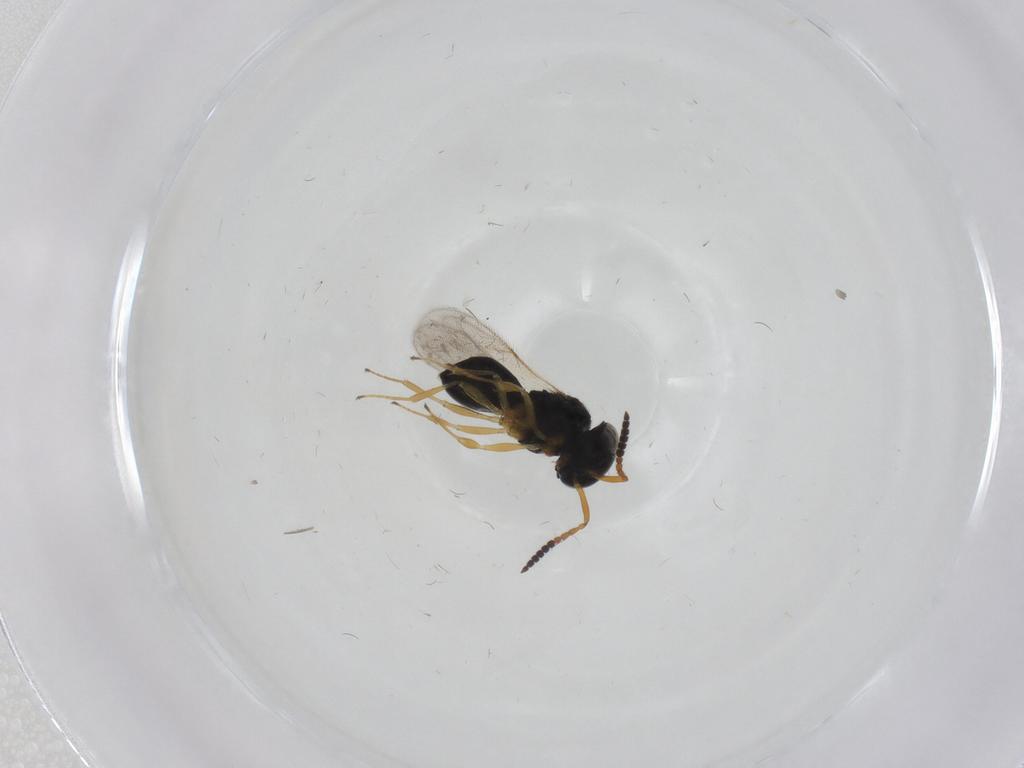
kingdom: Animalia
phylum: Arthropoda
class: Insecta
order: Hymenoptera
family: Scelionidae
